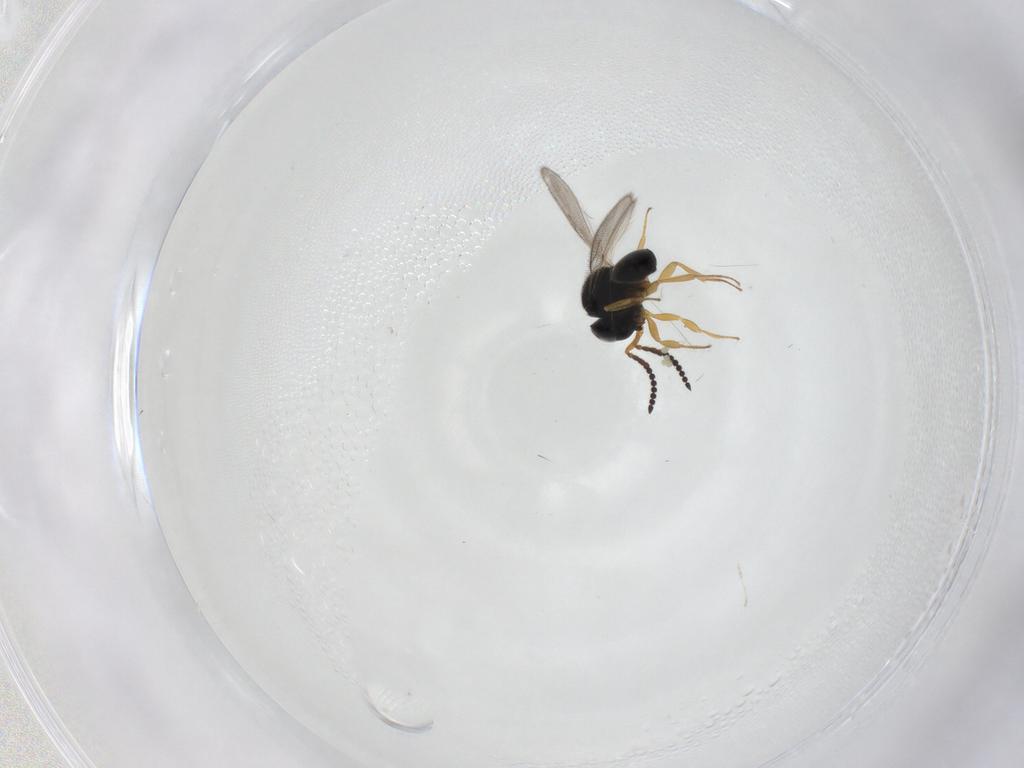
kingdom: Animalia
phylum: Arthropoda
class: Insecta
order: Hymenoptera
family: Scelionidae
